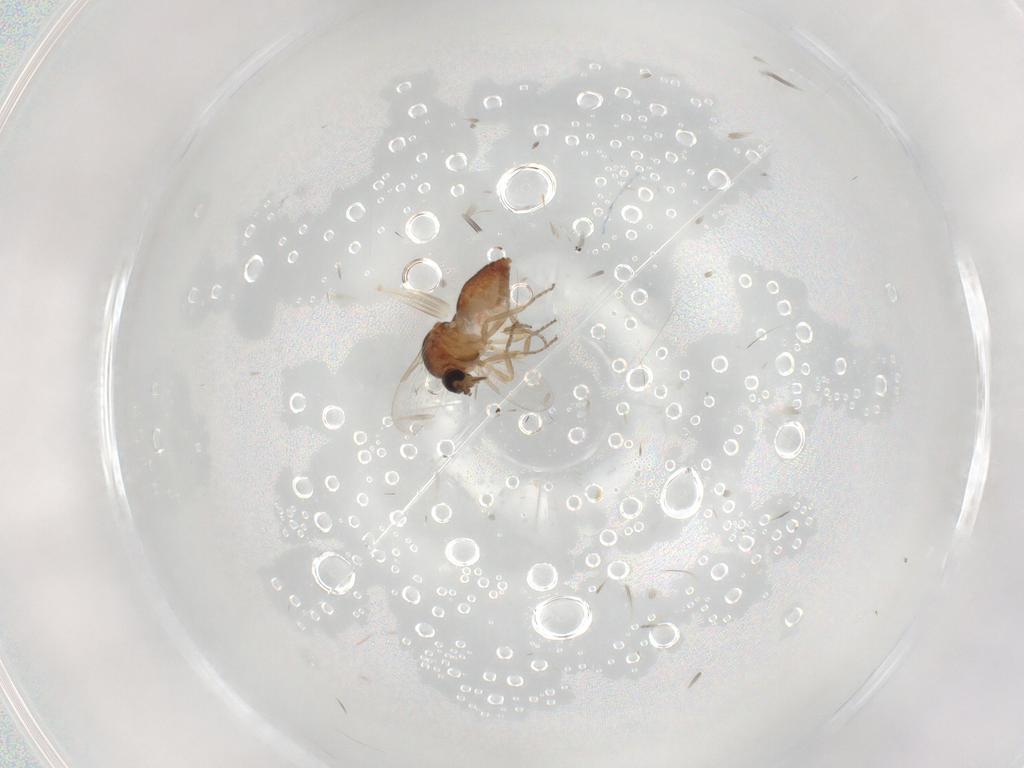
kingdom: Animalia
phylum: Arthropoda
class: Insecta
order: Diptera
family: Ceratopogonidae
